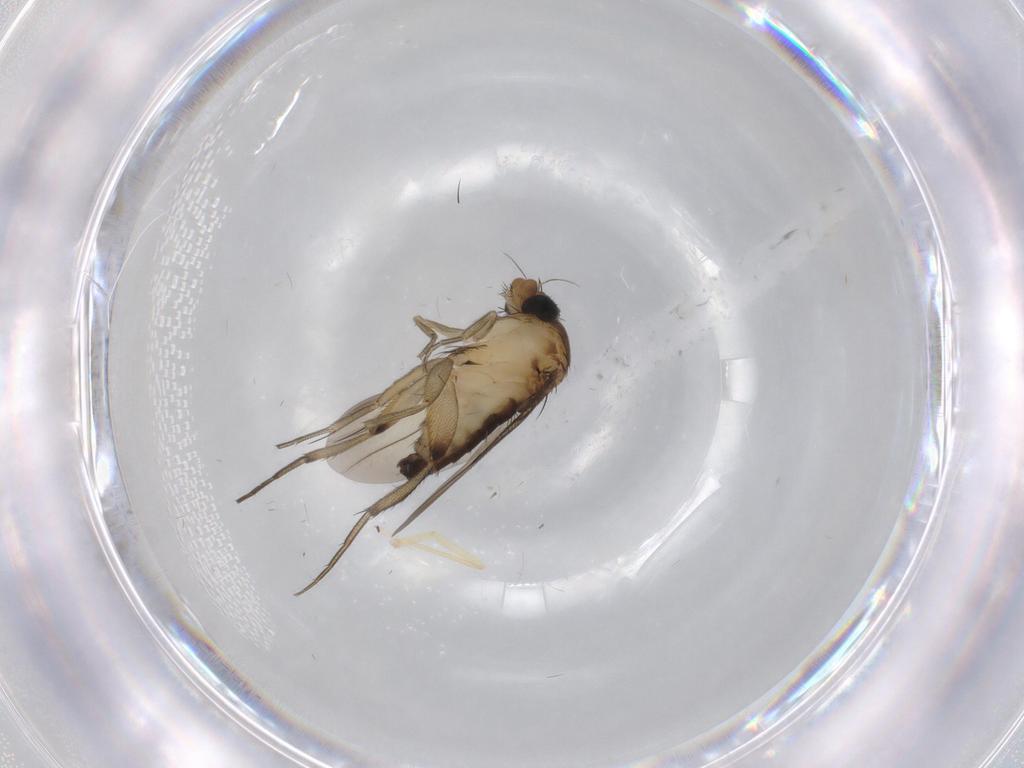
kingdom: Animalia
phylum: Arthropoda
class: Insecta
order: Diptera
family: Phoridae
